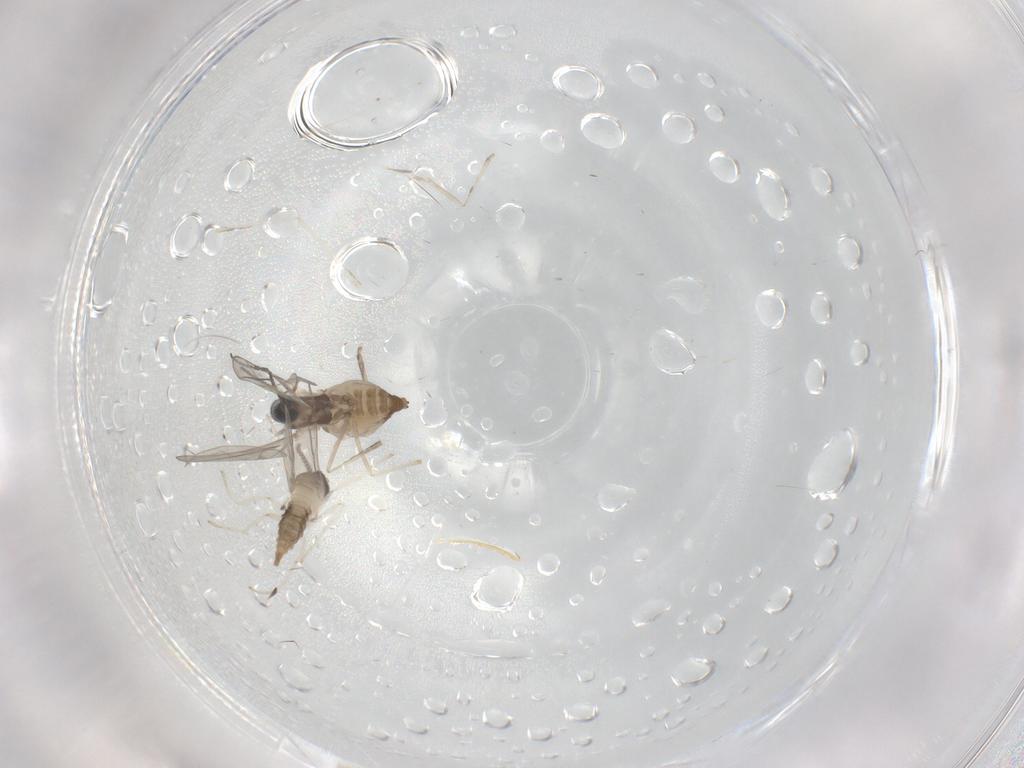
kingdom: Animalia
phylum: Arthropoda
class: Insecta
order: Diptera
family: Cecidomyiidae
